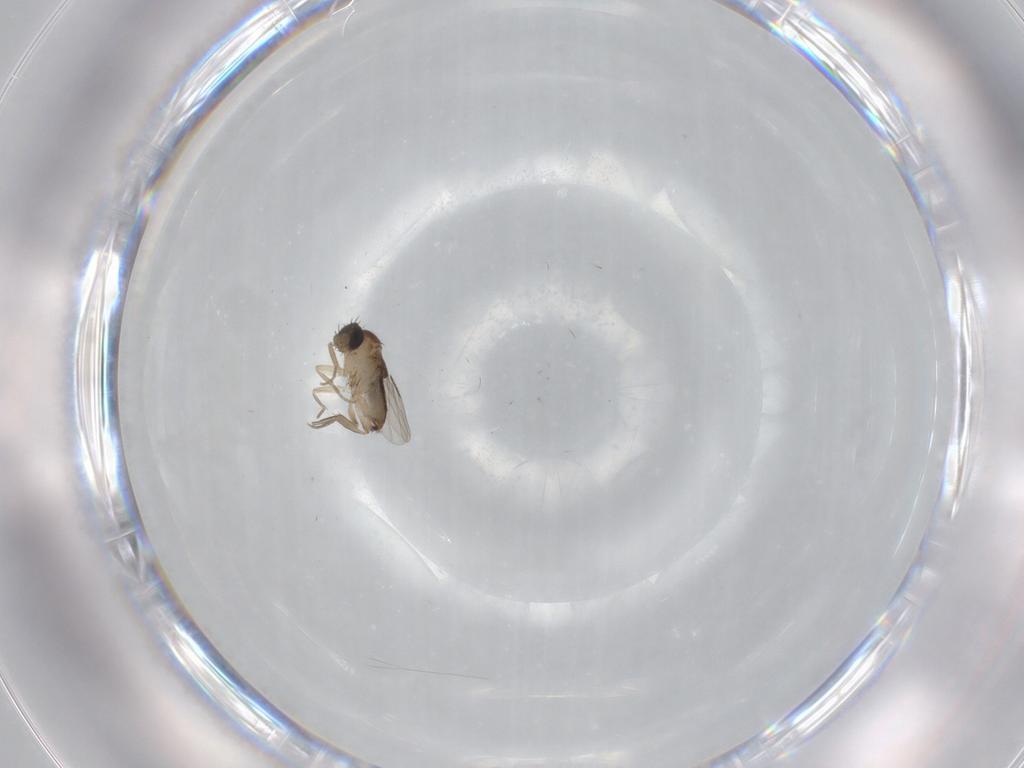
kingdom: Animalia
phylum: Arthropoda
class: Insecta
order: Diptera
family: Phoridae
